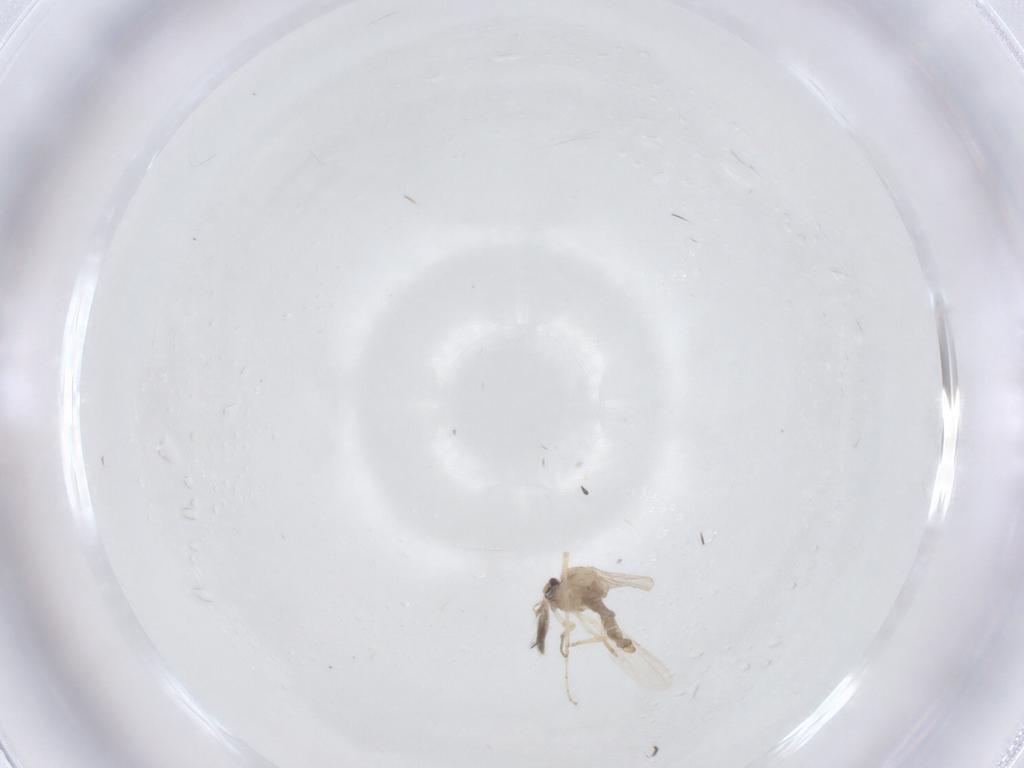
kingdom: Animalia
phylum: Arthropoda
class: Insecta
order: Diptera
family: Ceratopogonidae
